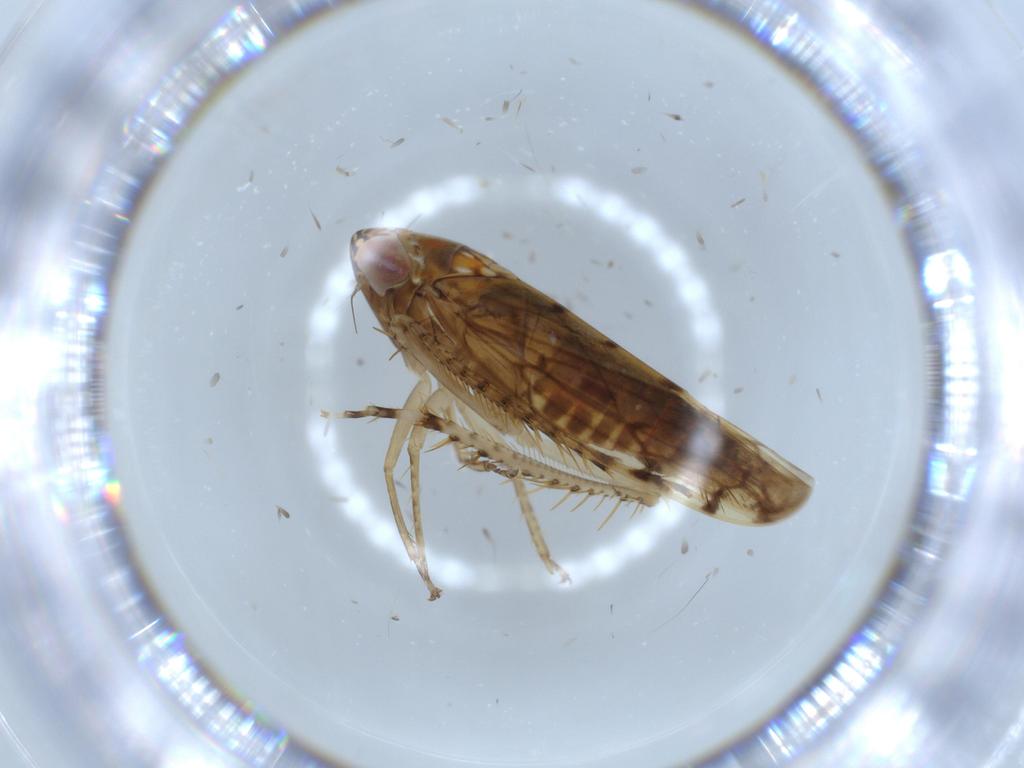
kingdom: Animalia
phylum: Arthropoda
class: Insecta
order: Hemiptera
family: Cicadellidae
